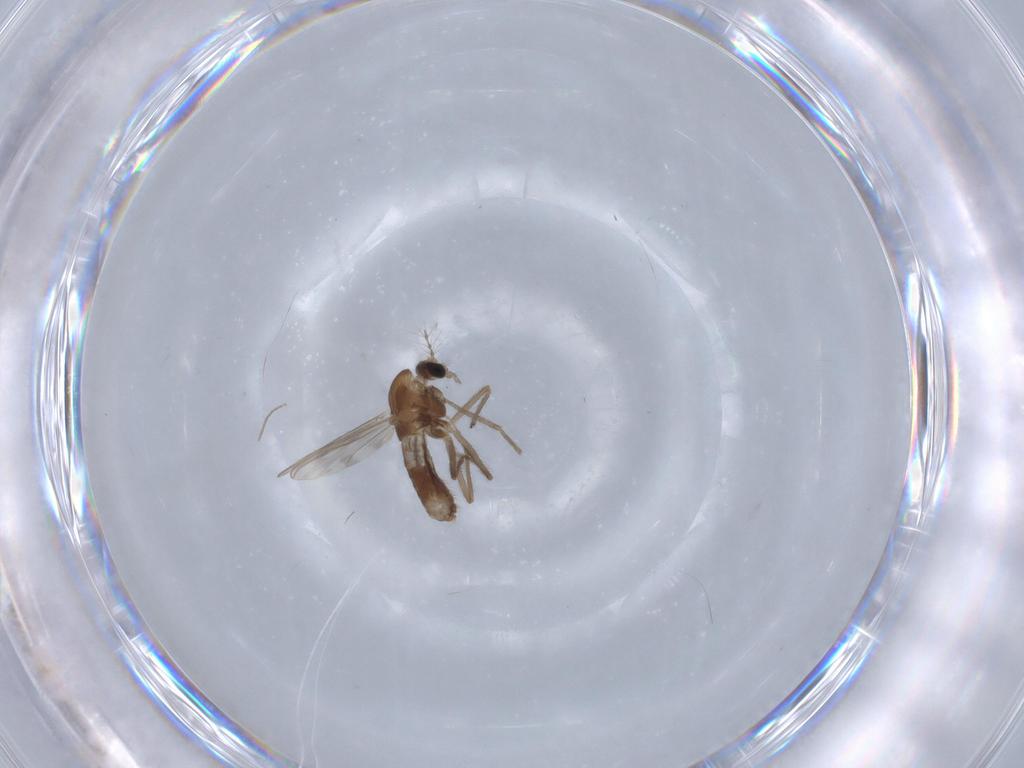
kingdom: Animalia
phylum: Arthropoda
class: Insecta
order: Diptera
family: Chironomidae
